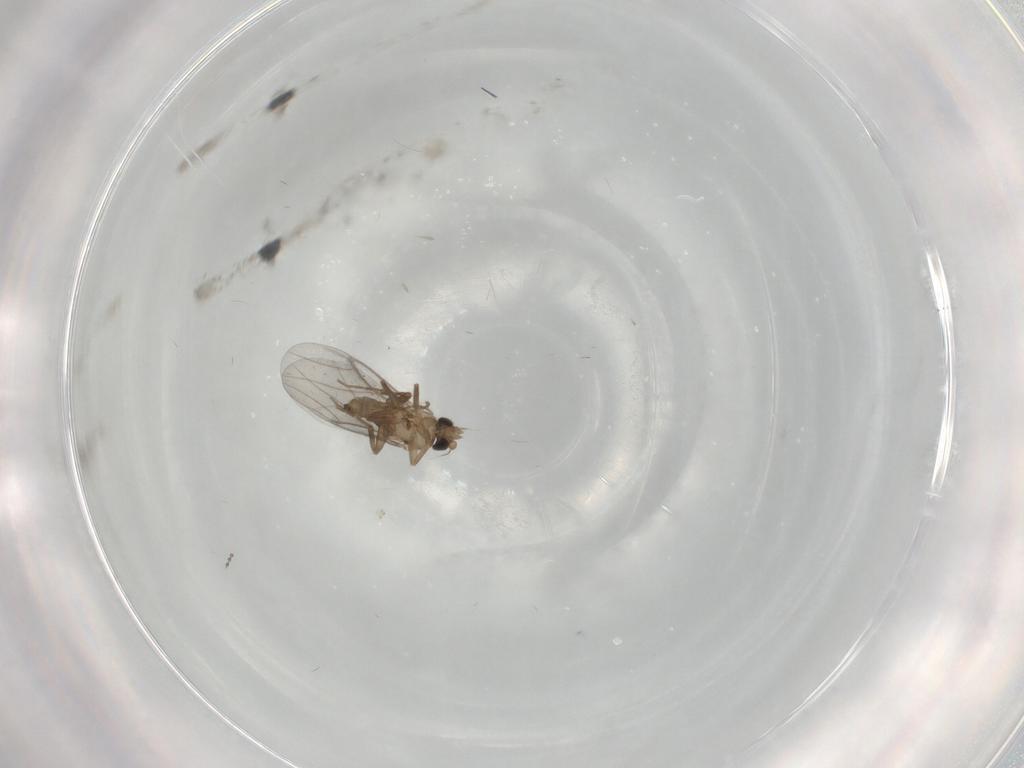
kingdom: Animalia
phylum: Arthropoda
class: Insecta
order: Diptera
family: Cecidomyiidae
